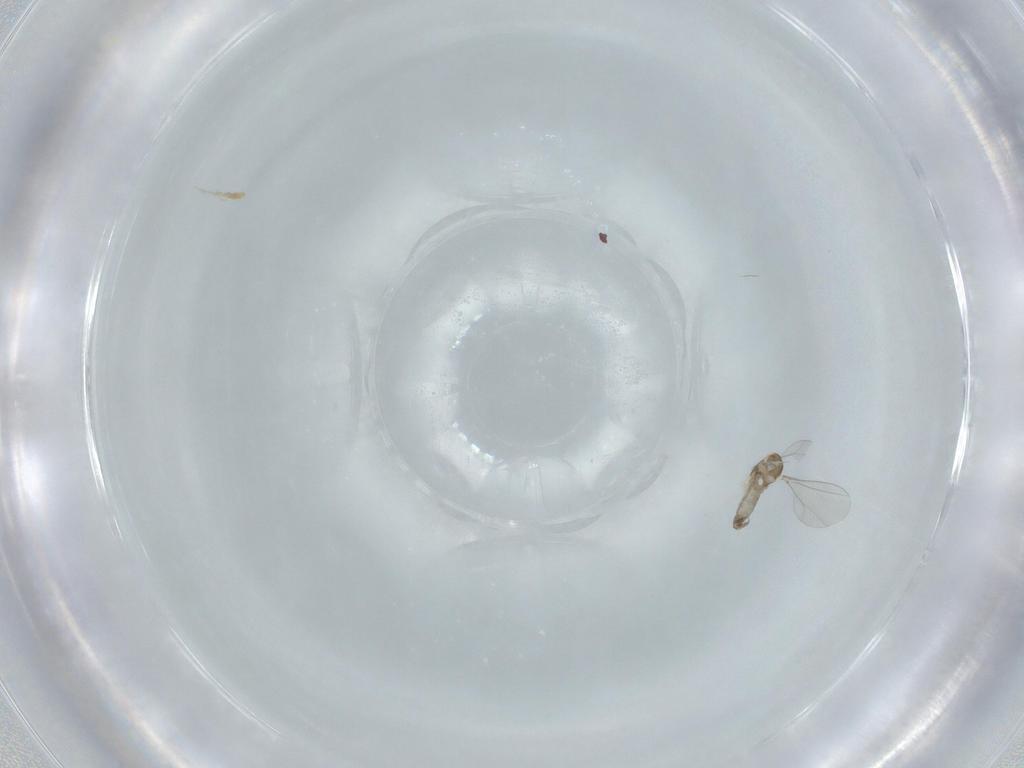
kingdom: Animalia
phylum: Arthropoda
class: Insecta
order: Diptera
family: Cecidomyiidae
